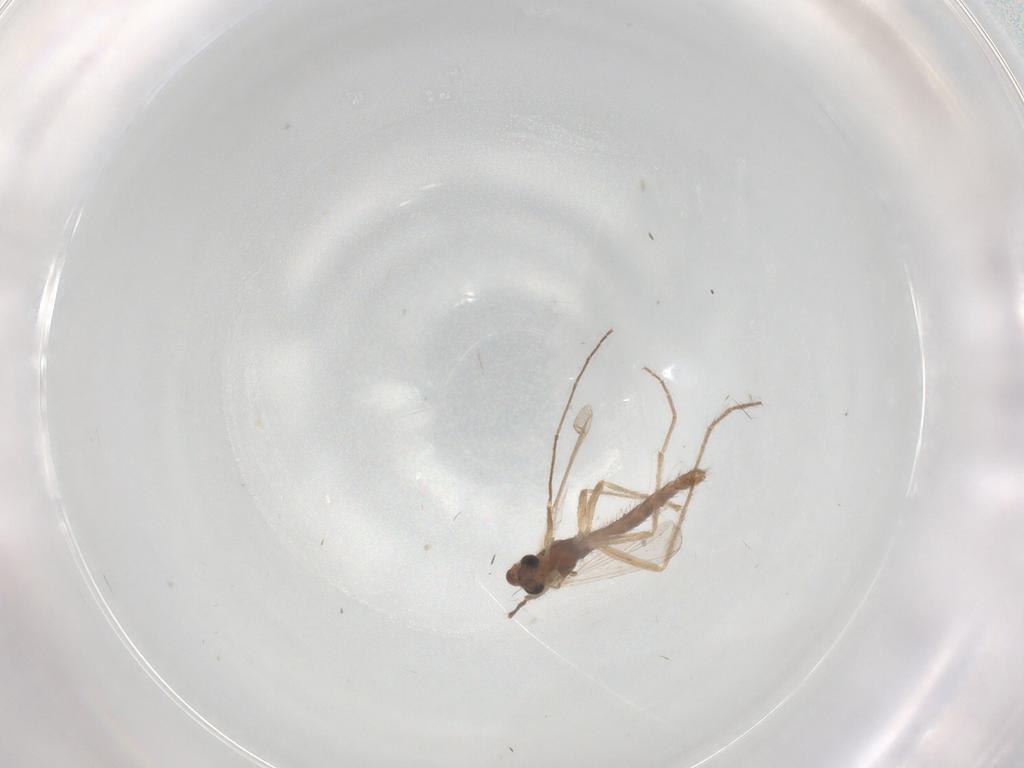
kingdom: Animalia
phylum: Arthropoda
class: Insecta
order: Diptera
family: Chironomidae
